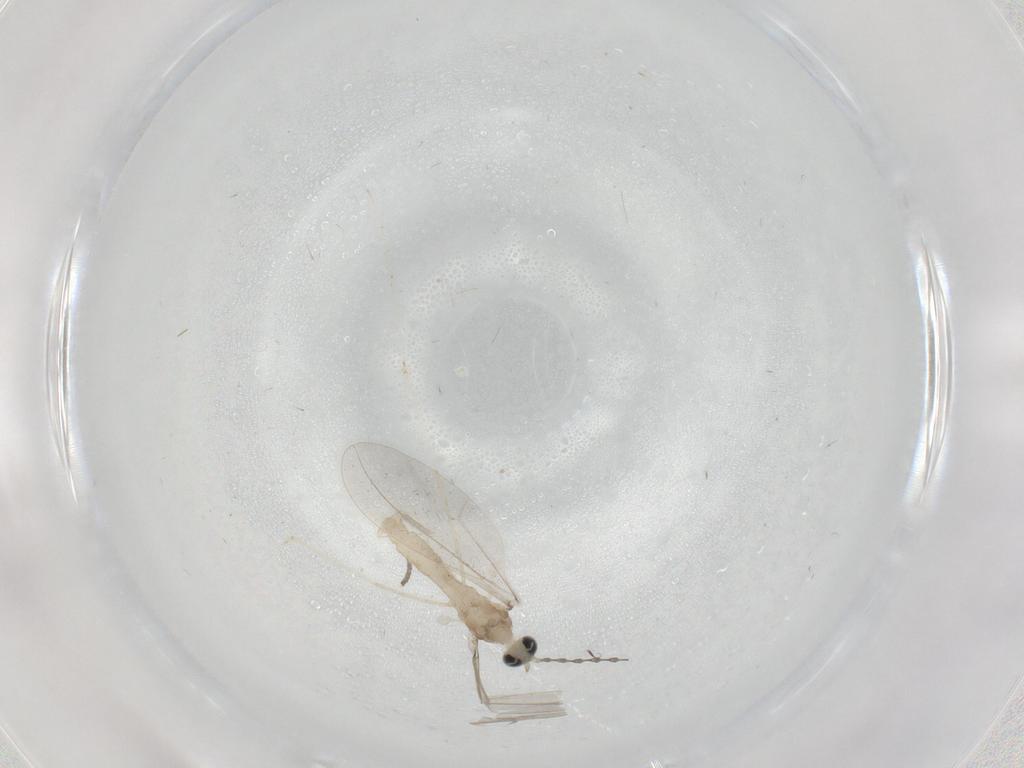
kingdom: Animalia
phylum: Arthropoda
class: Insecta
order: Diptera
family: Cecidomyiidae
